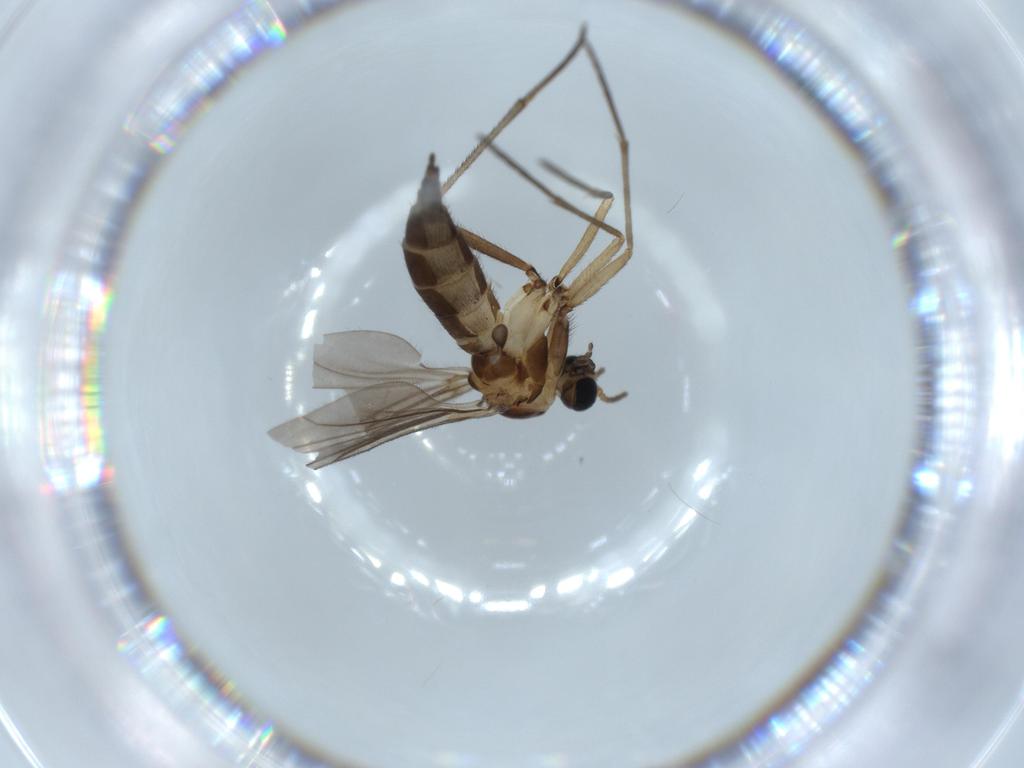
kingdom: Animalia
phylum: Arthropoda
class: Insecta
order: Diptera
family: Sciaridae
